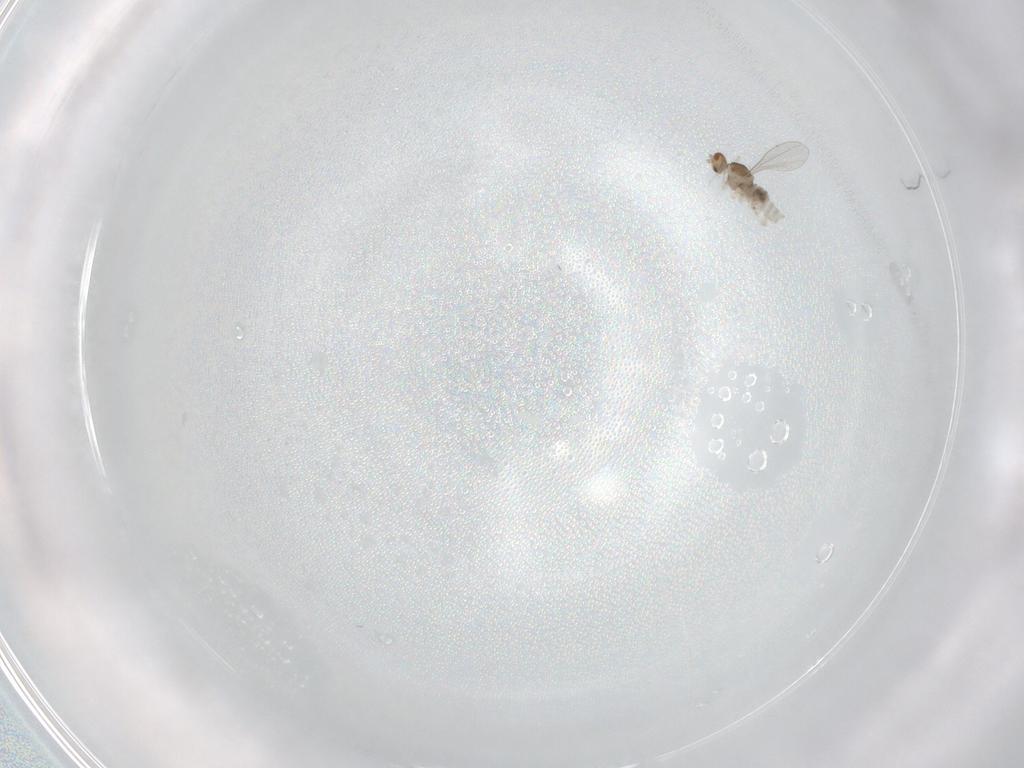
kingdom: Animalia
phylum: Arthropoda
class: Insecta
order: Diptera
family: Cecidomyiidae
